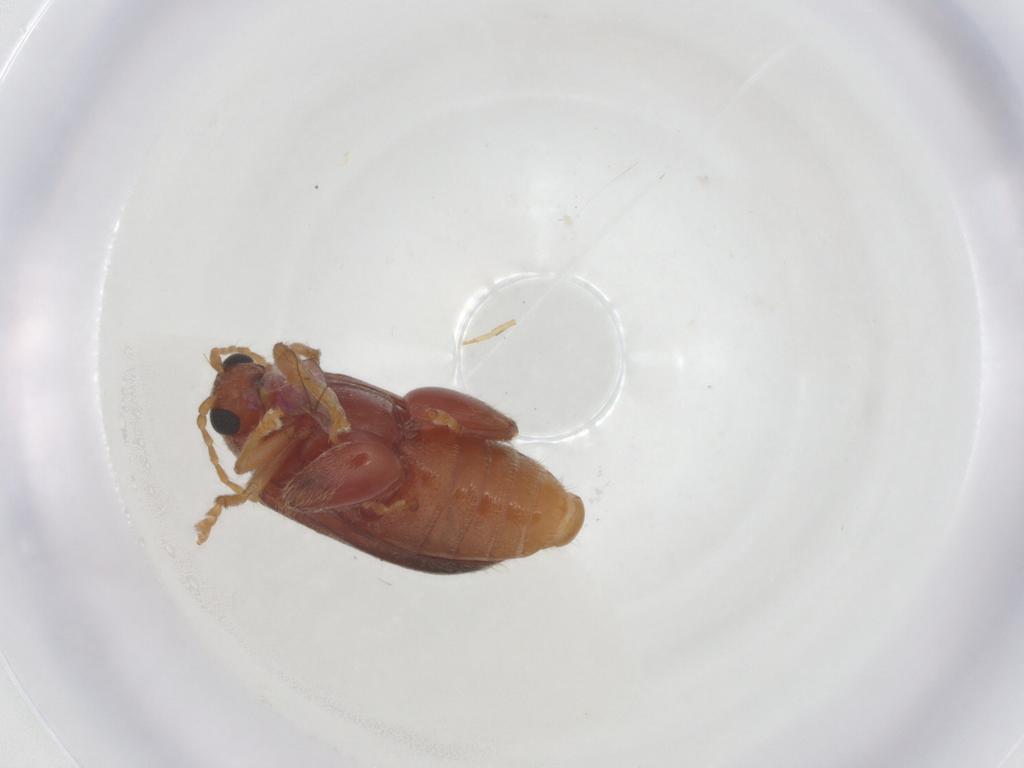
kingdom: Animalia
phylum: Arthropoda
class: Insecta
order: Coleoptera
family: Chrysomelidae
